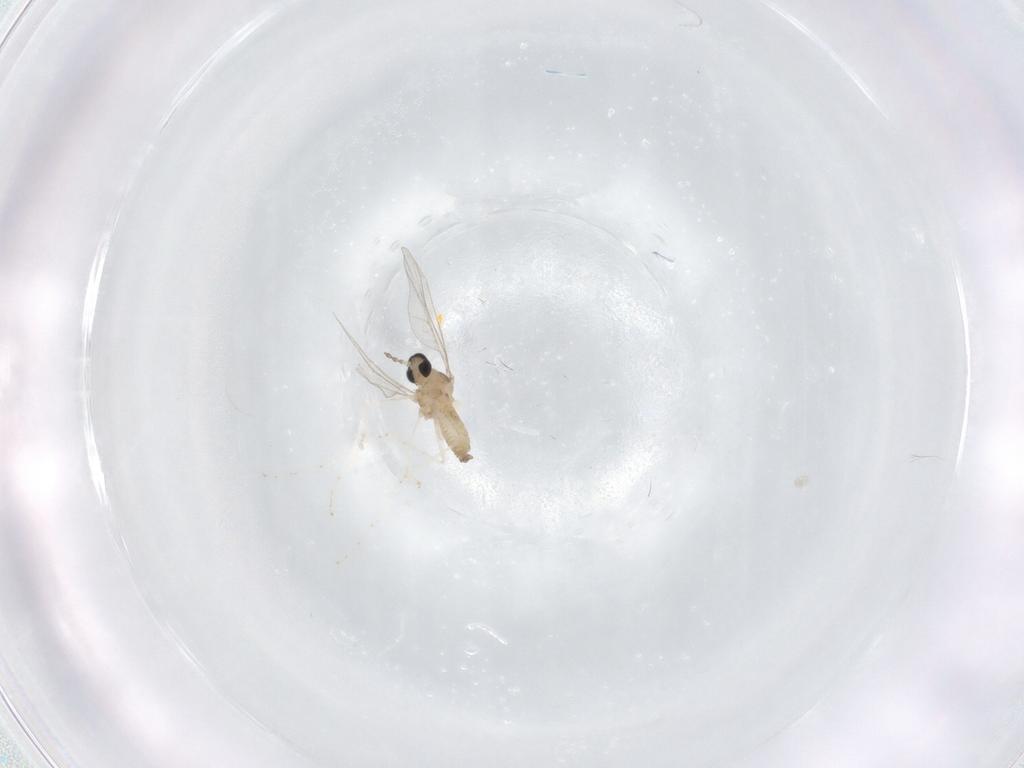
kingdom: Animalia
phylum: Arthropoda
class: Insecta
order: Diptera
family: Cecidomyiidae
